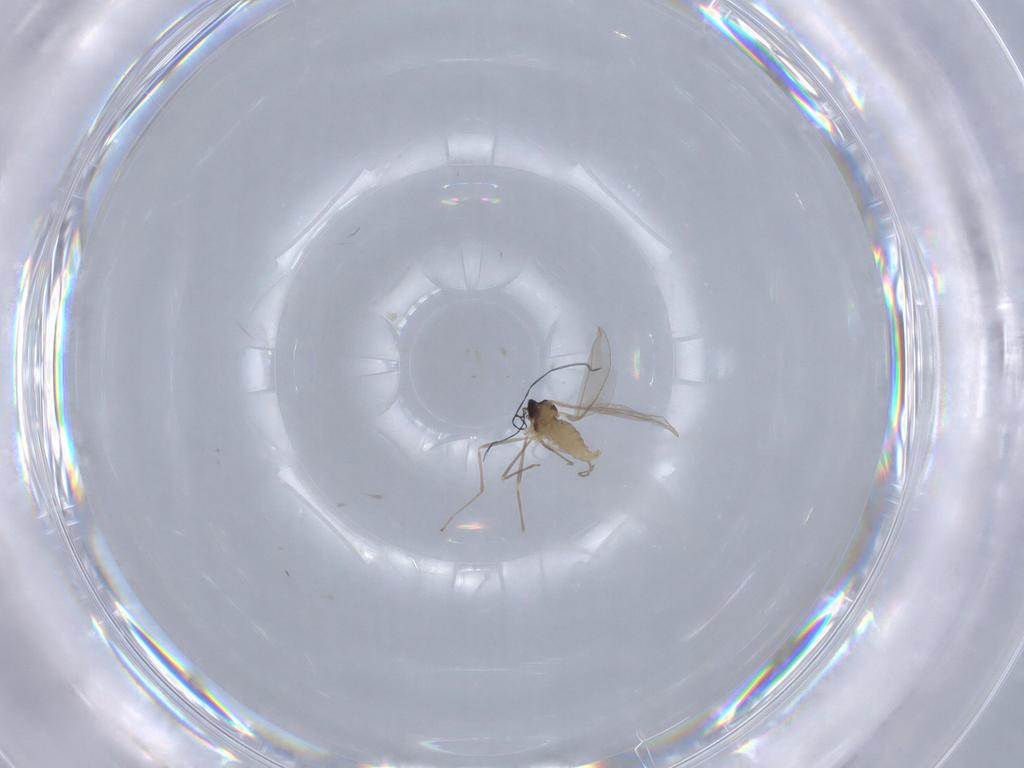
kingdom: Animalia
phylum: Arthropoda
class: Insecta
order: Diptera
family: Cecidomyiidae
